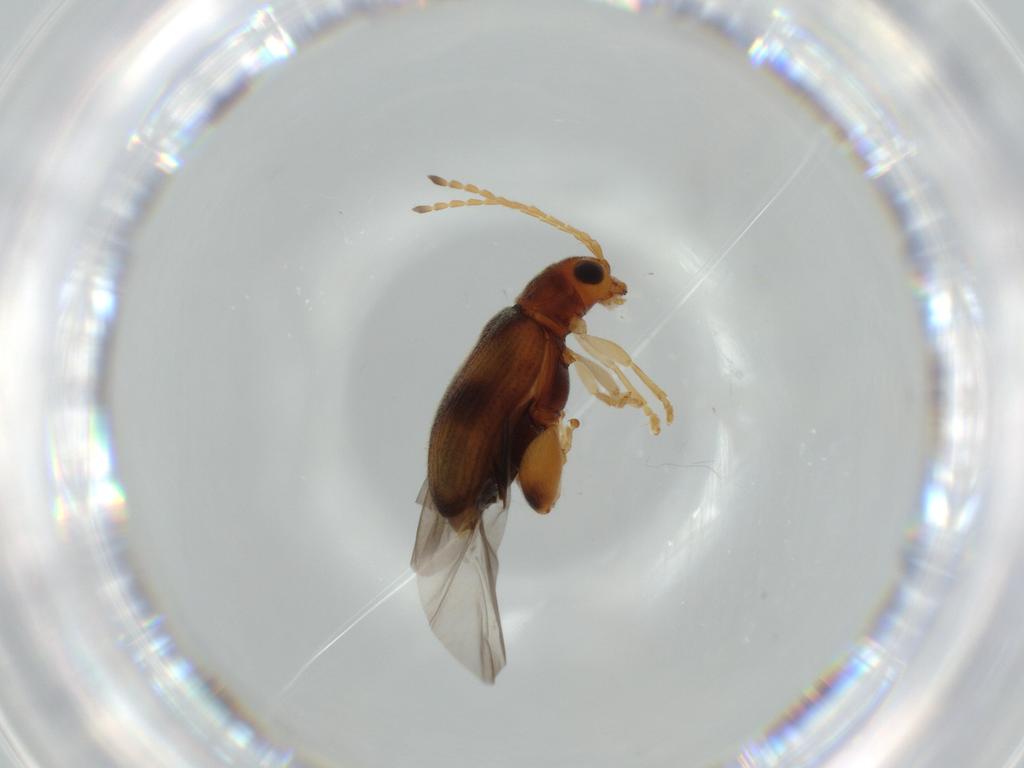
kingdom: Animalia
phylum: Arthropoda
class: Insecta
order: Coleoptera
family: Chrysomelidae
